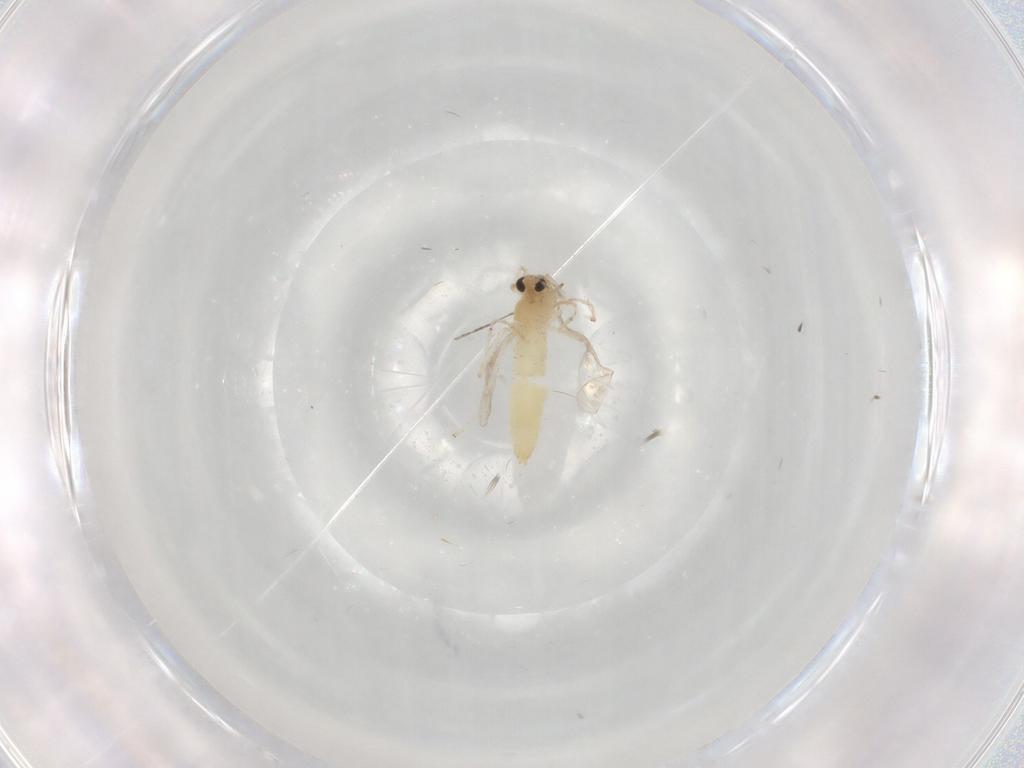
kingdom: Animalia
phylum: Arthropoda
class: Insecta
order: Diptera
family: Chironomidae
